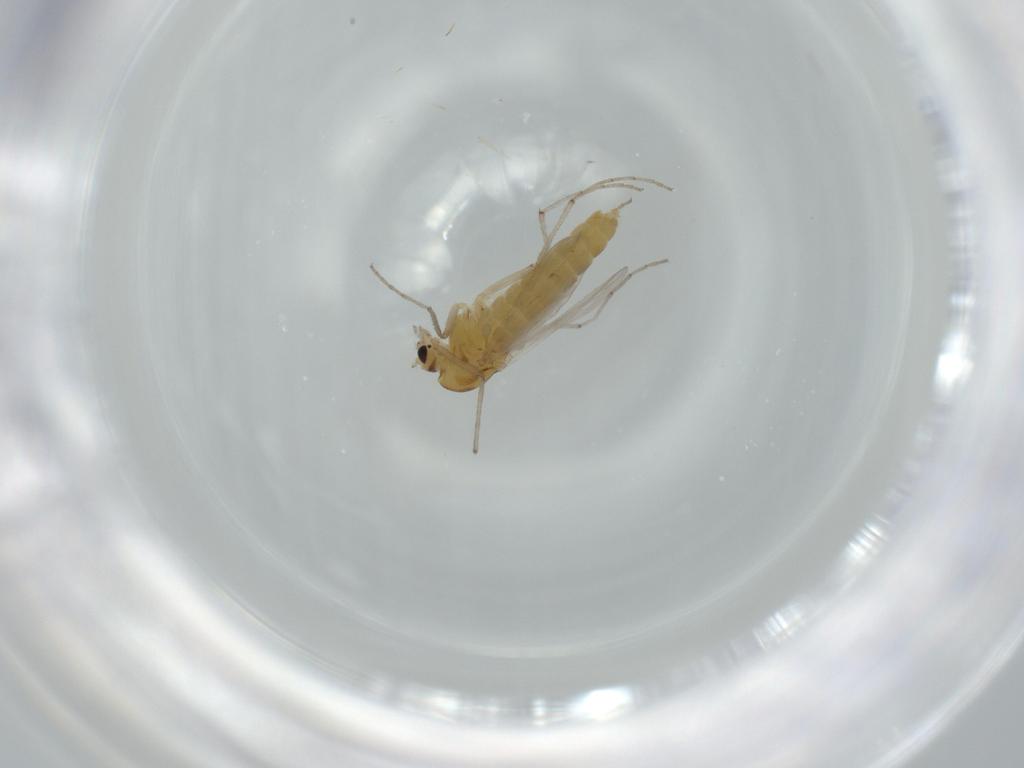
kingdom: Animalia
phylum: Arthropoda
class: Insecta
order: Diptera
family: Chironomidae
